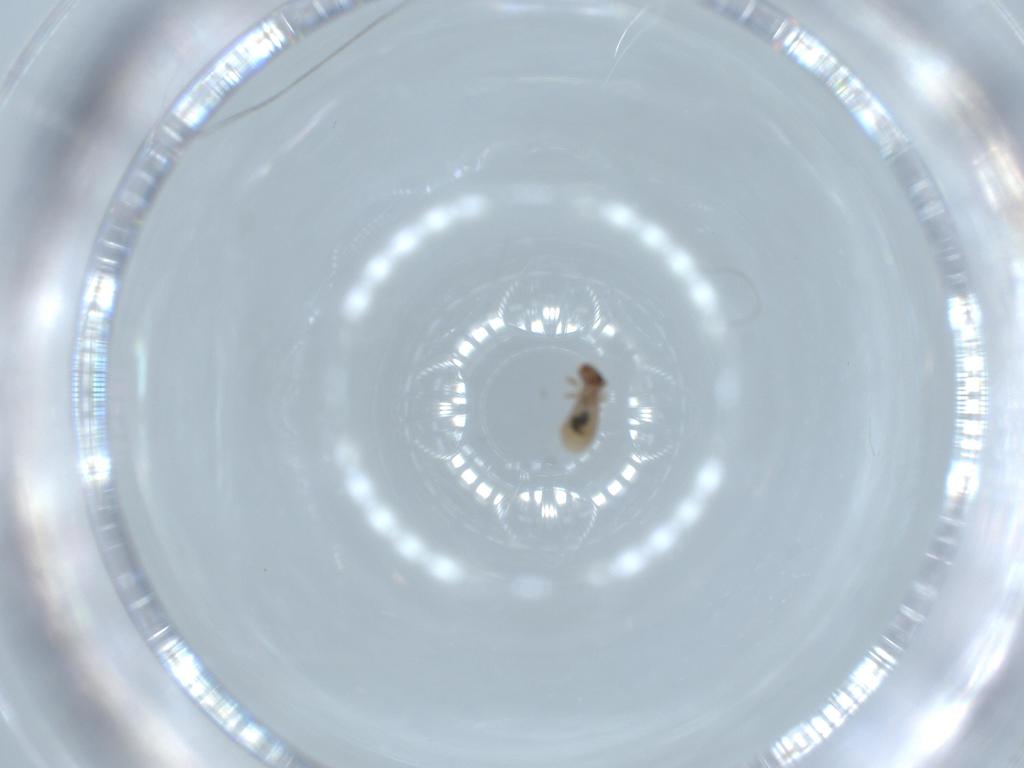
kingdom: Animalia
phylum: Arthropoda
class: Insecta
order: Psocodea
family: Liposcelididae
